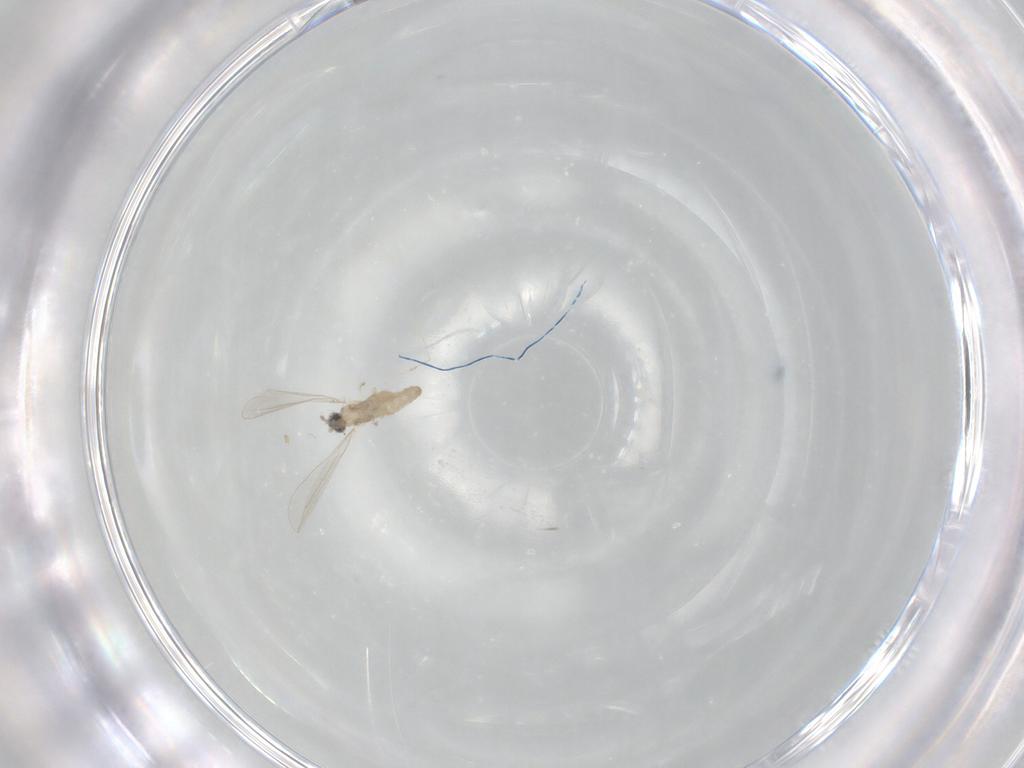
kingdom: Animalia
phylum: Arthropoda
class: Insecta
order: Diptera
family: Cecidomyiidae
